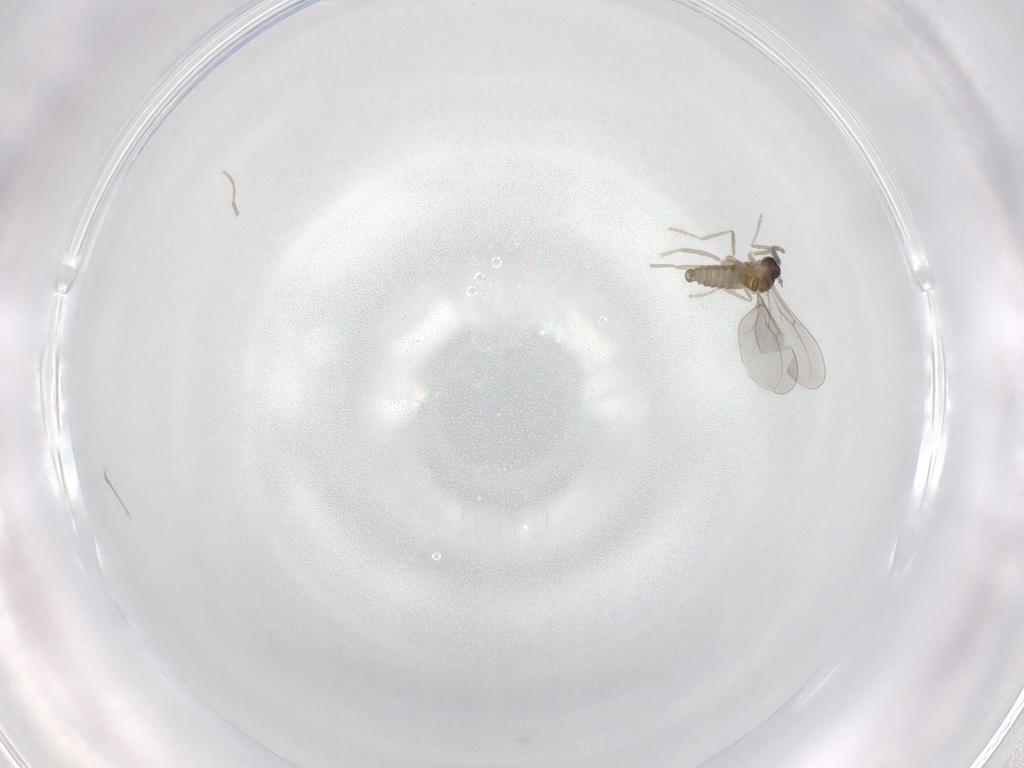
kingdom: Animalia
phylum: Arthropoda
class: Insecta
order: Diptera
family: Cecidomyiidae
